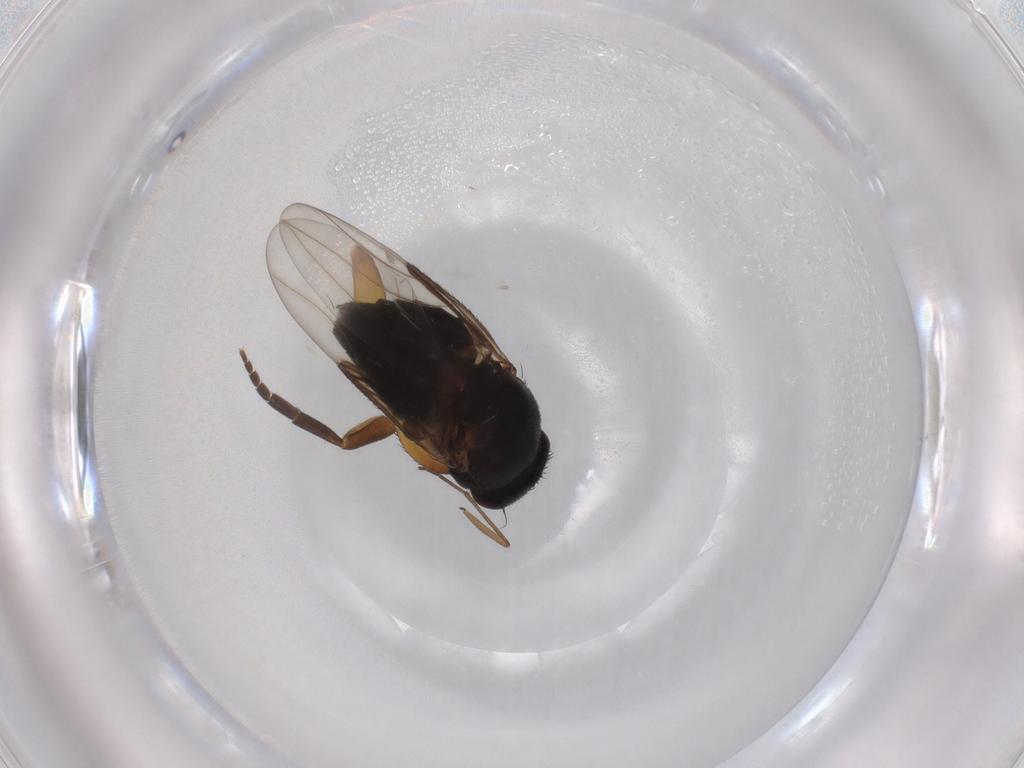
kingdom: Animalia
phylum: Arthropoda
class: Insecta
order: Diptera
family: Phoridae
